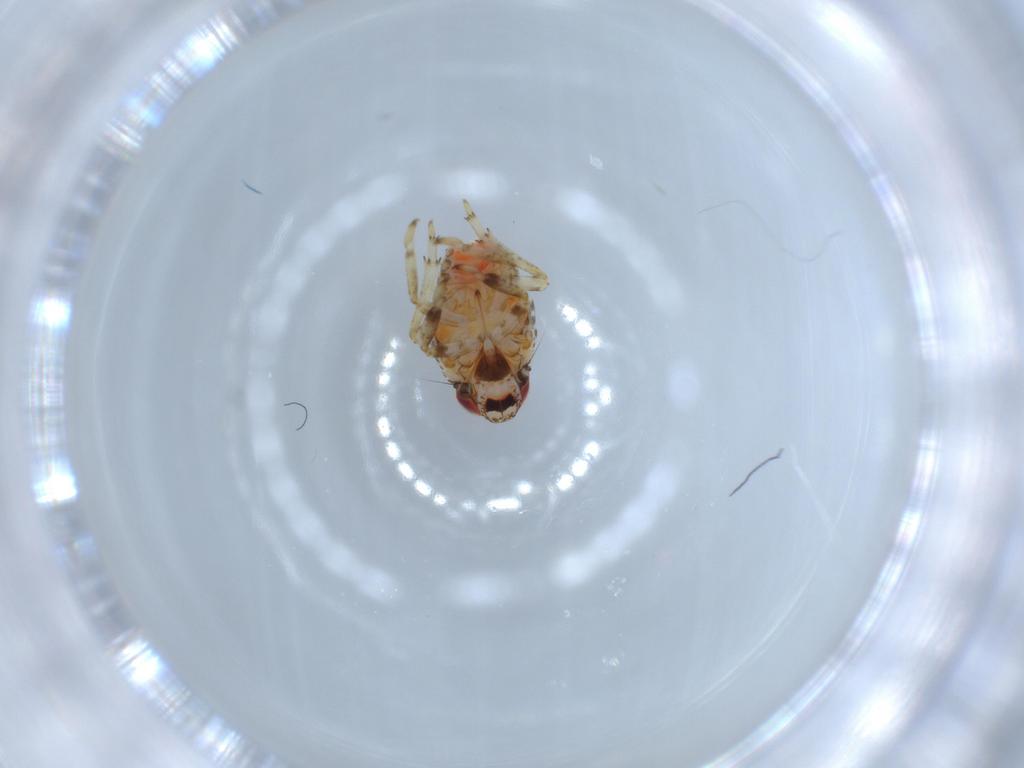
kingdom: Animalia
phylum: Arthropoda
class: Insecta
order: Hemiptera
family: Issidae
